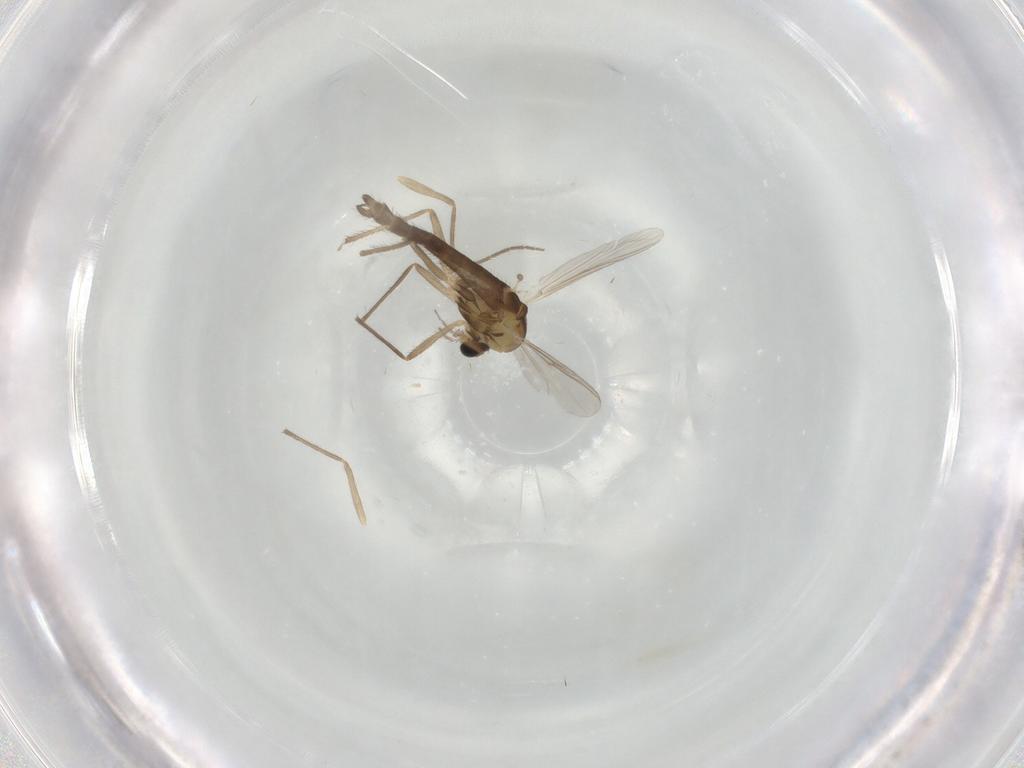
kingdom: Animalia
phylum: Arthropoda
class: Insecta
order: Diptera
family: Chironomidae
